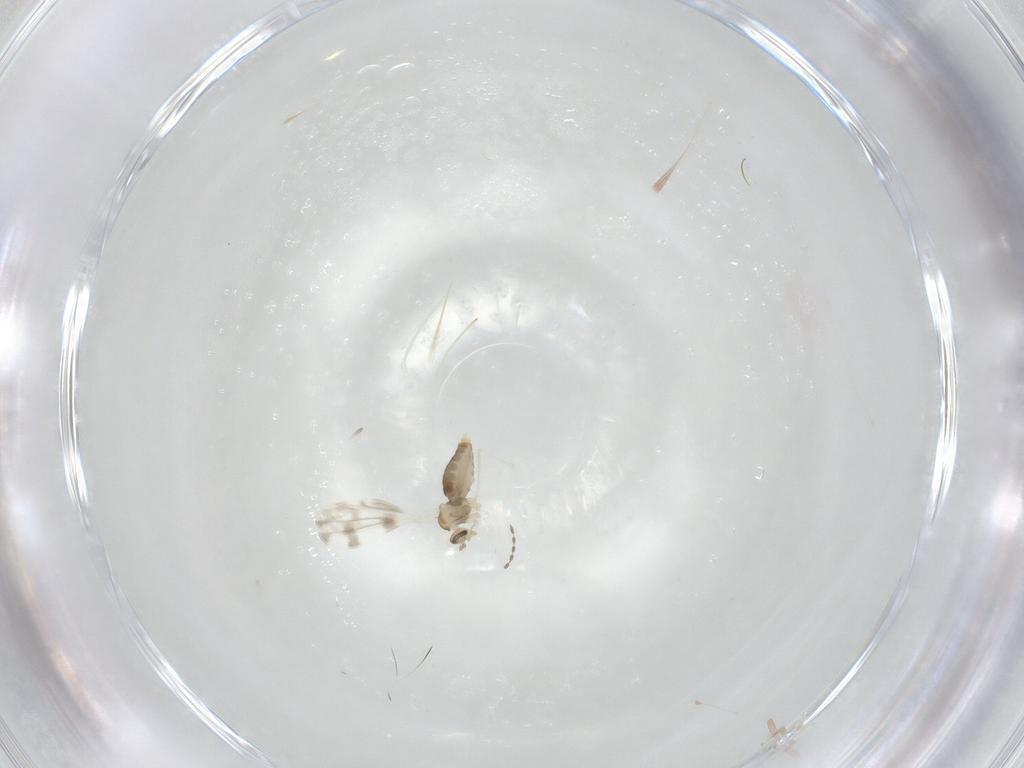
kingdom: Animalia
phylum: Arthropoda
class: Insecta
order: Diptera
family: Cecidomyiidae
